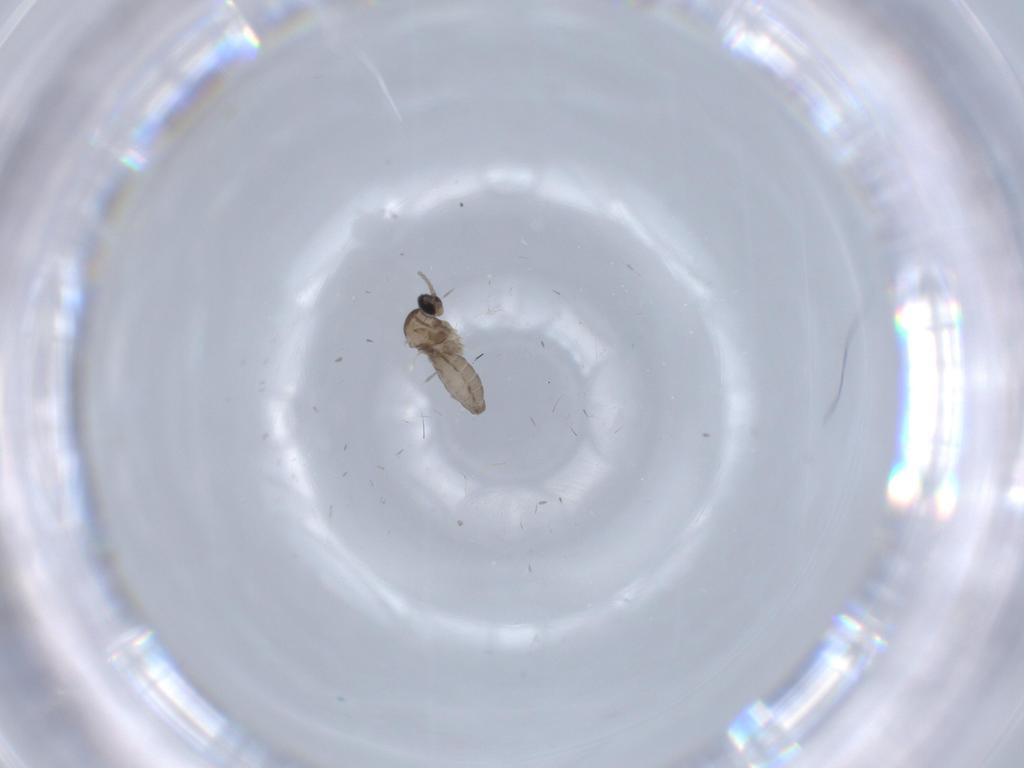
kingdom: Animalia
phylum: Arthropoda
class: Insecta
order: Diptera
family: Cecidomyiidae
